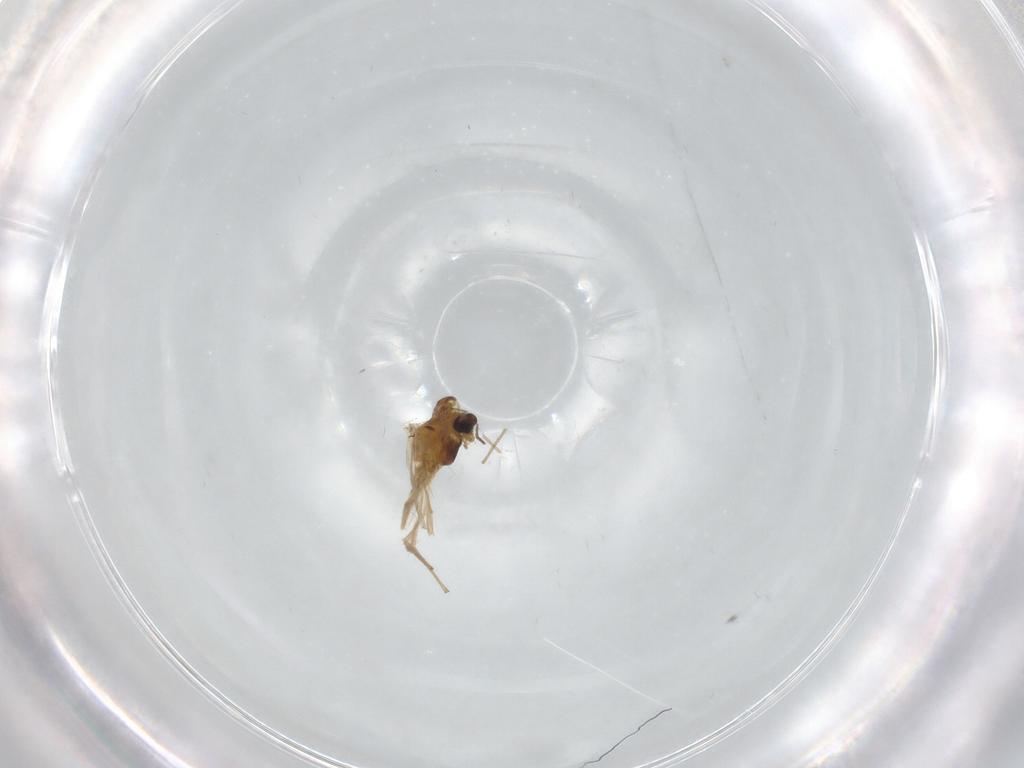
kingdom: Animalia
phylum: Arthropoda
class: Insecta
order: Diptera
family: Chironomidae
